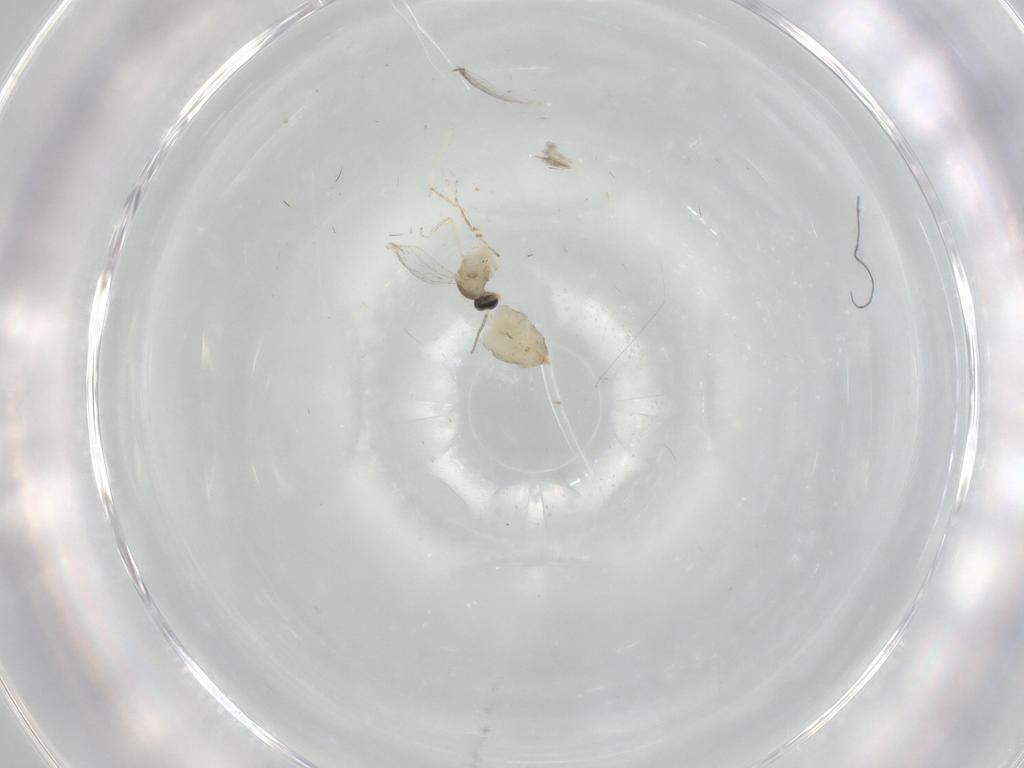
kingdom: Animalia
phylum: Arthropoda
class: Insecta
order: Diptera
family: Cecidomyiidae
